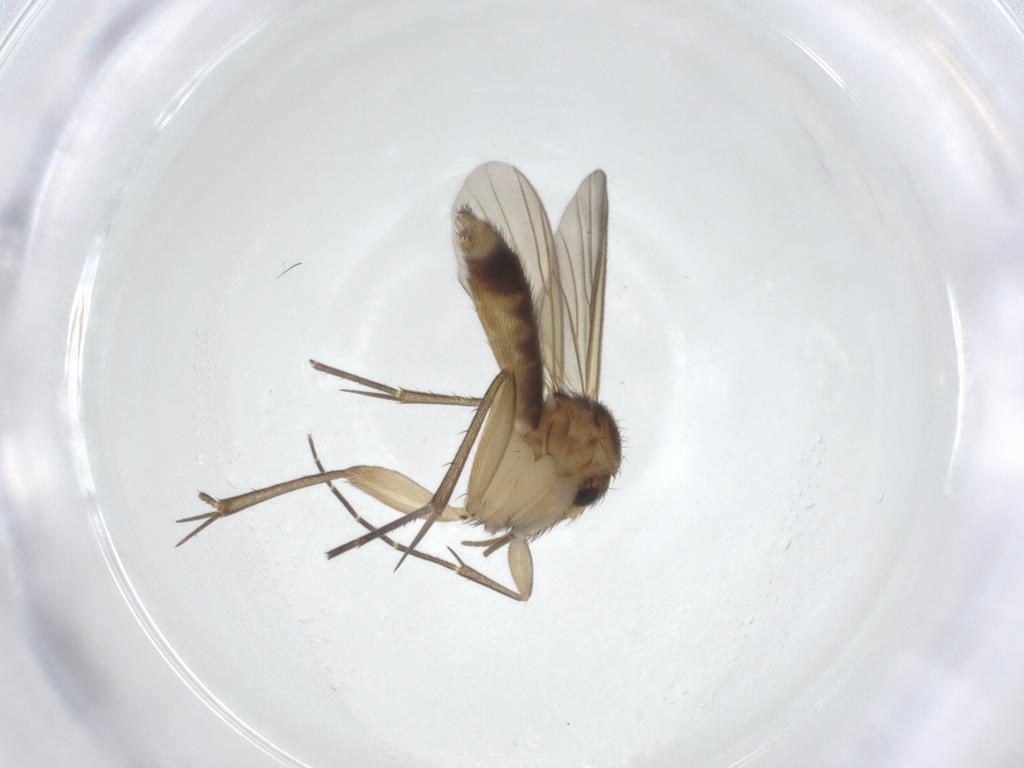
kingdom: Animalia
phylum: Arthropoda
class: Insecta
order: Diptera
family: Mycetophilidae
